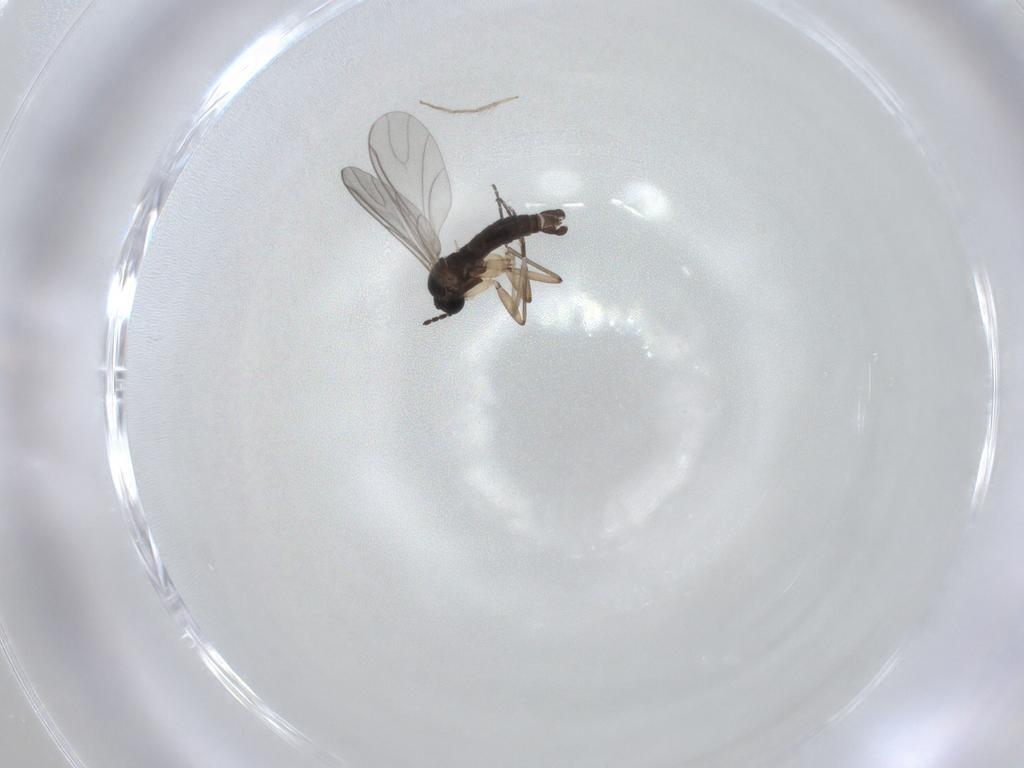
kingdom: Animalia
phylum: Arthropoda
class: Insecta
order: Diptera
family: Sciaridae
